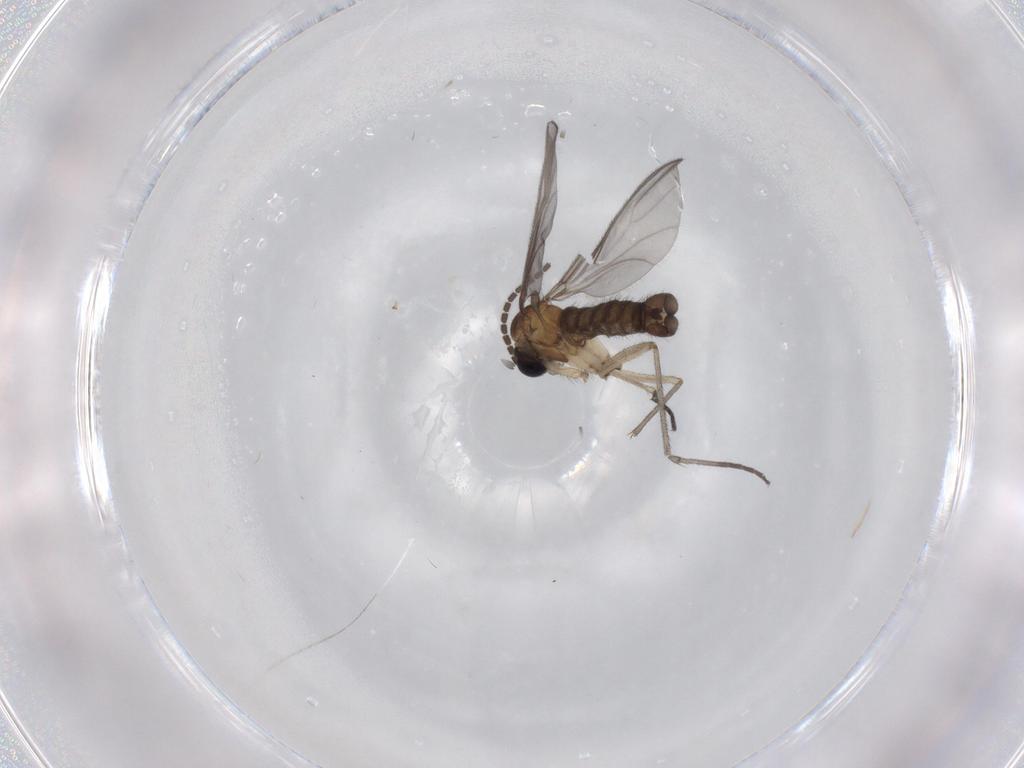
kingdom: Animalia
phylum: Arthropoda
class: Insecta
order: Diptera
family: Sciaridae
